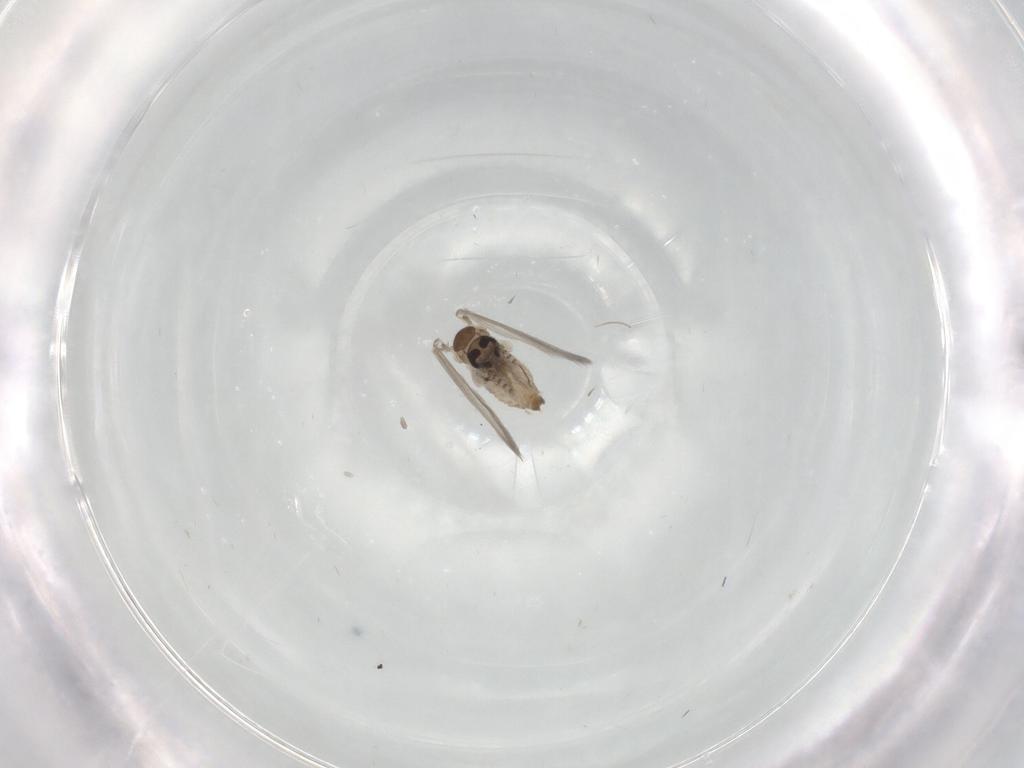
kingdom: Animalia
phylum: Arthropoda
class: Insecta
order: Diptera
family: Psychodidae
